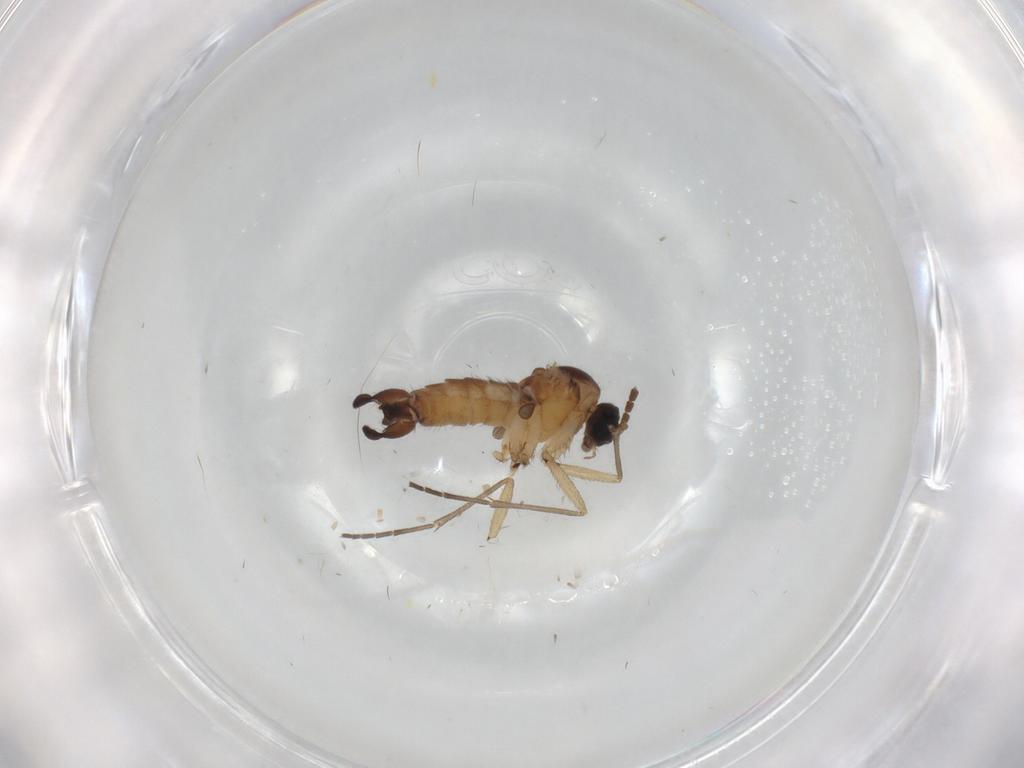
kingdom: Animalia
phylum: Arthropoda
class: Insecta
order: Diptera
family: Sciaridae
